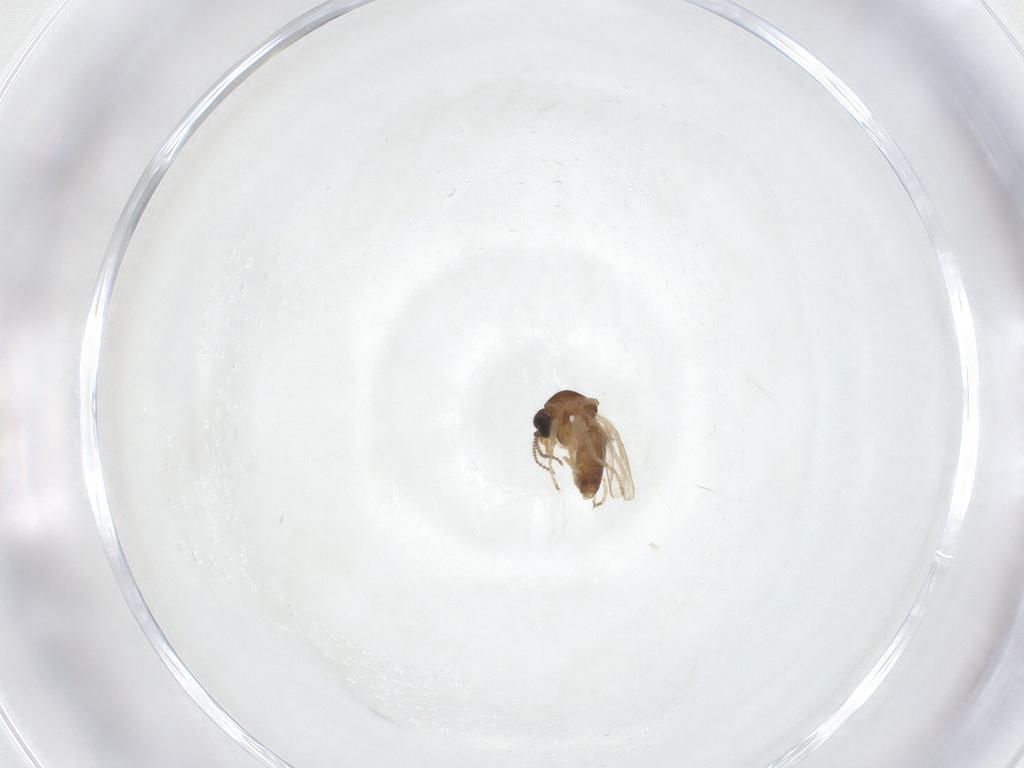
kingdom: Animalia
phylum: Arthropoda
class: Insecta
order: Diptera
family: Ceratopogonidae
